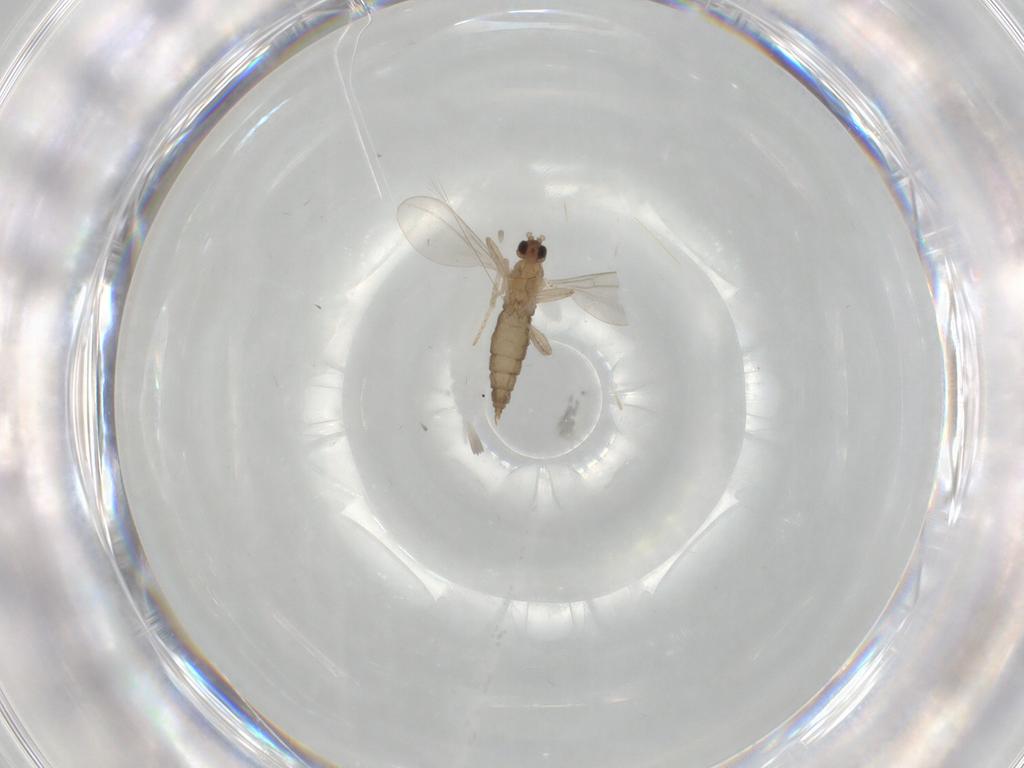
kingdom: Animalia
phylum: Arthropoda
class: Insecta
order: Diptera
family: Cecidomyiidae
